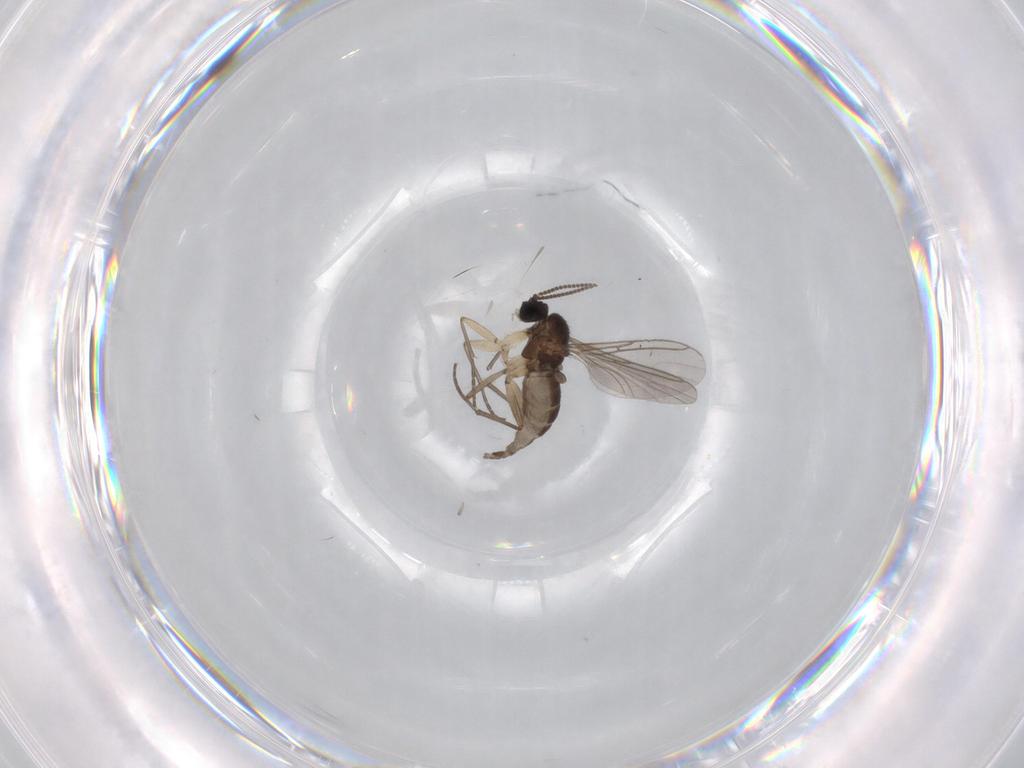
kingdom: Animalia
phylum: Arthropoda
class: Insecta
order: Diptera
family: Sciaridae
